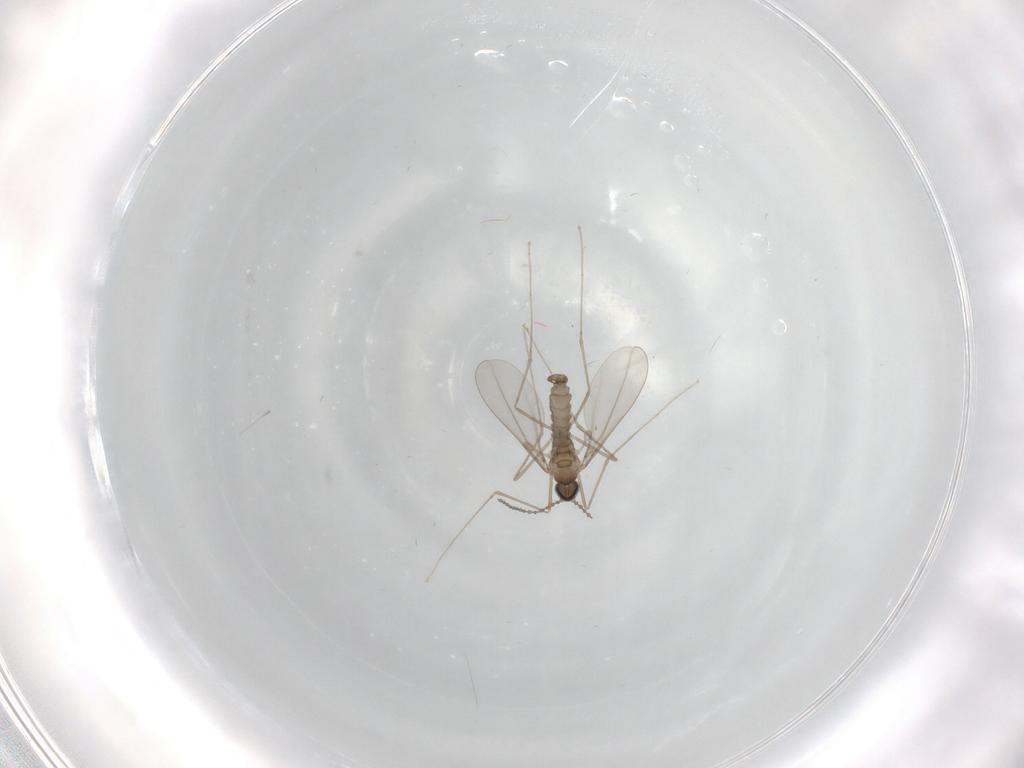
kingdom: Animalia
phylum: Arthropoda
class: Insecta
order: Diptera
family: Cecidomyiidae
